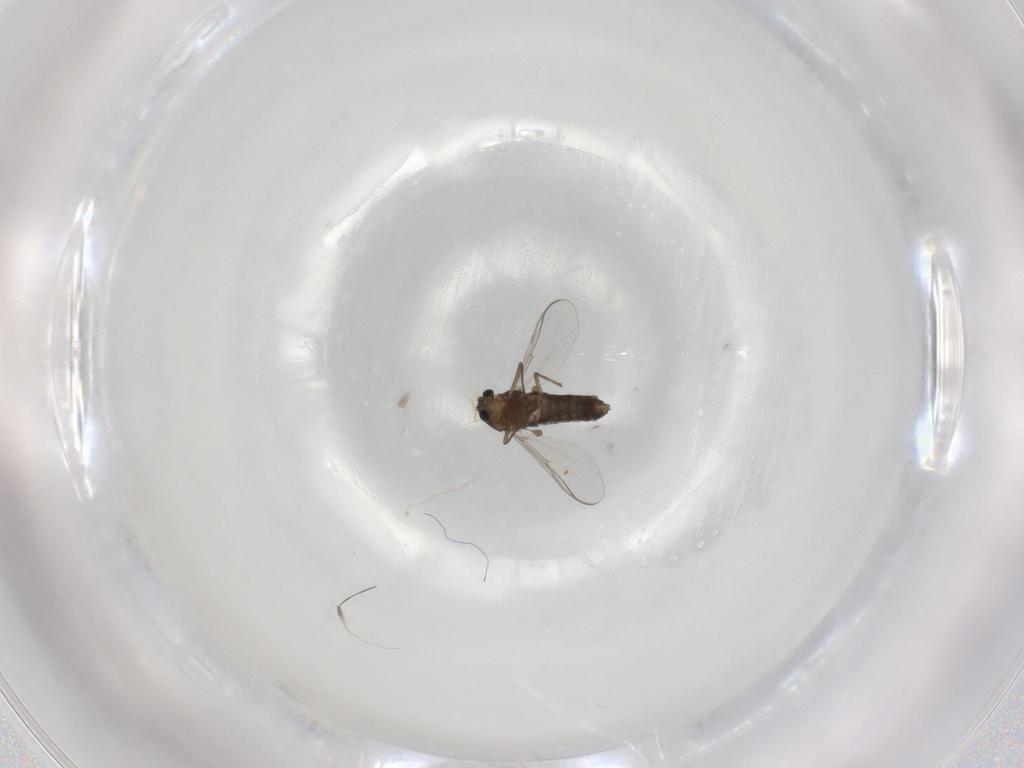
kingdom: Animalia
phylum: Arthropoda
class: Insecta
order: Diptera
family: Chironomidae
